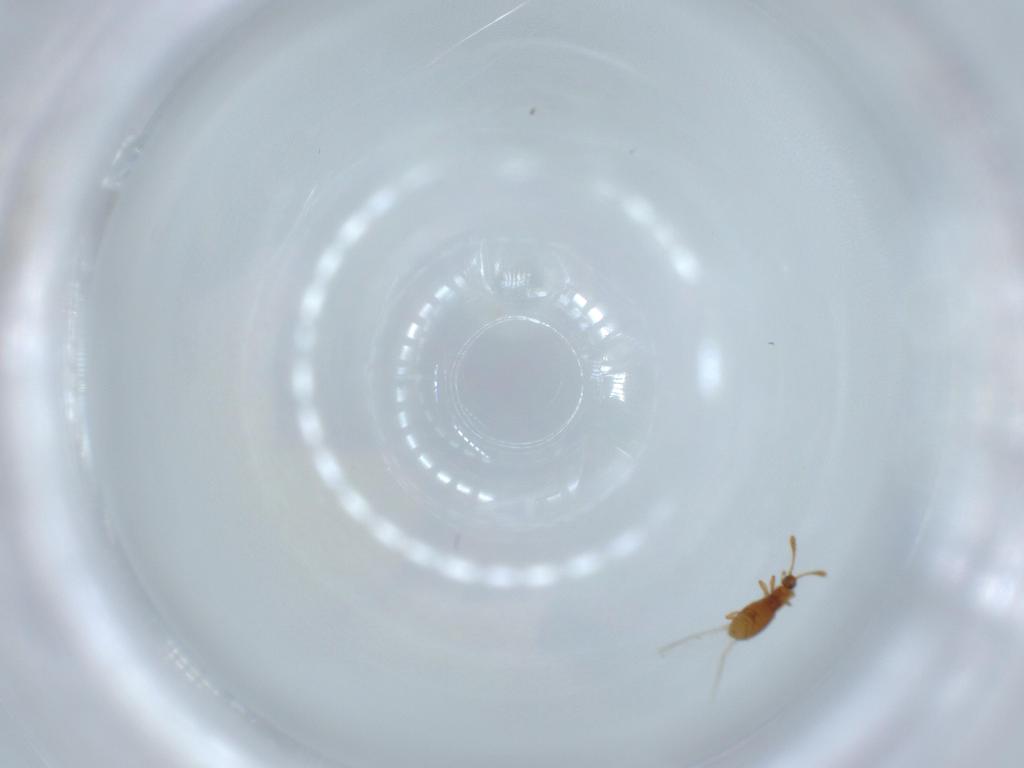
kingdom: Animalia
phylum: Arthropoda
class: Insecta
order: Coleoptera
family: Staphylinidae
